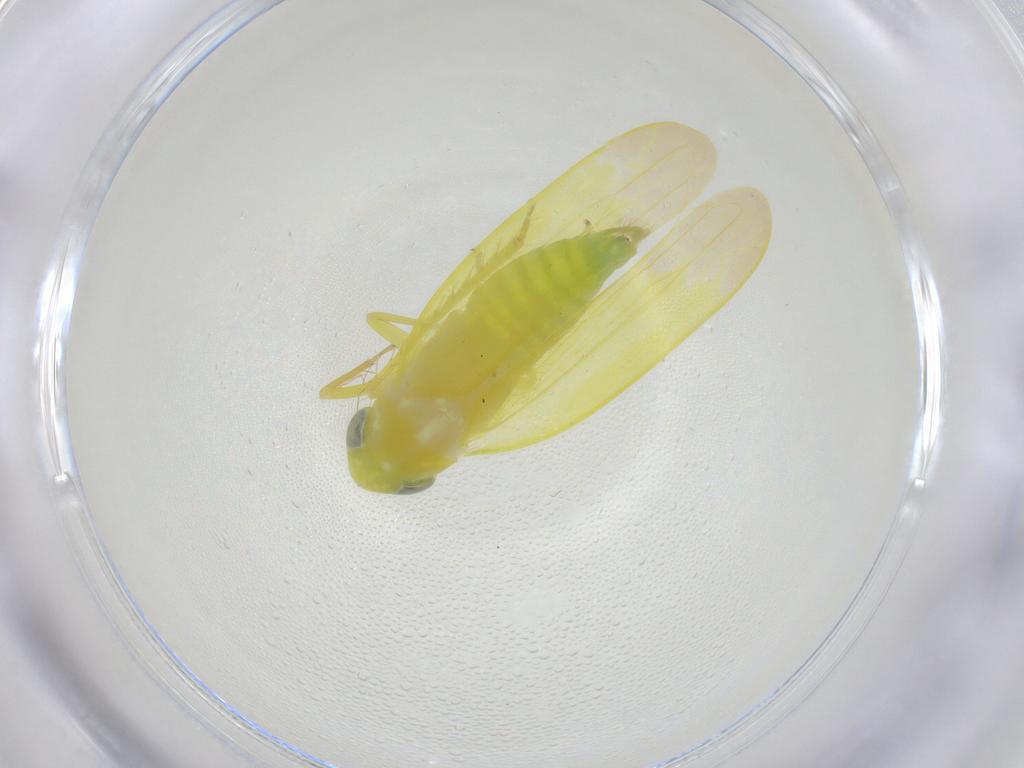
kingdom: Animalia
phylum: Arthropoda
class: Insecta
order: Hemiptera
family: Cicadellidae
